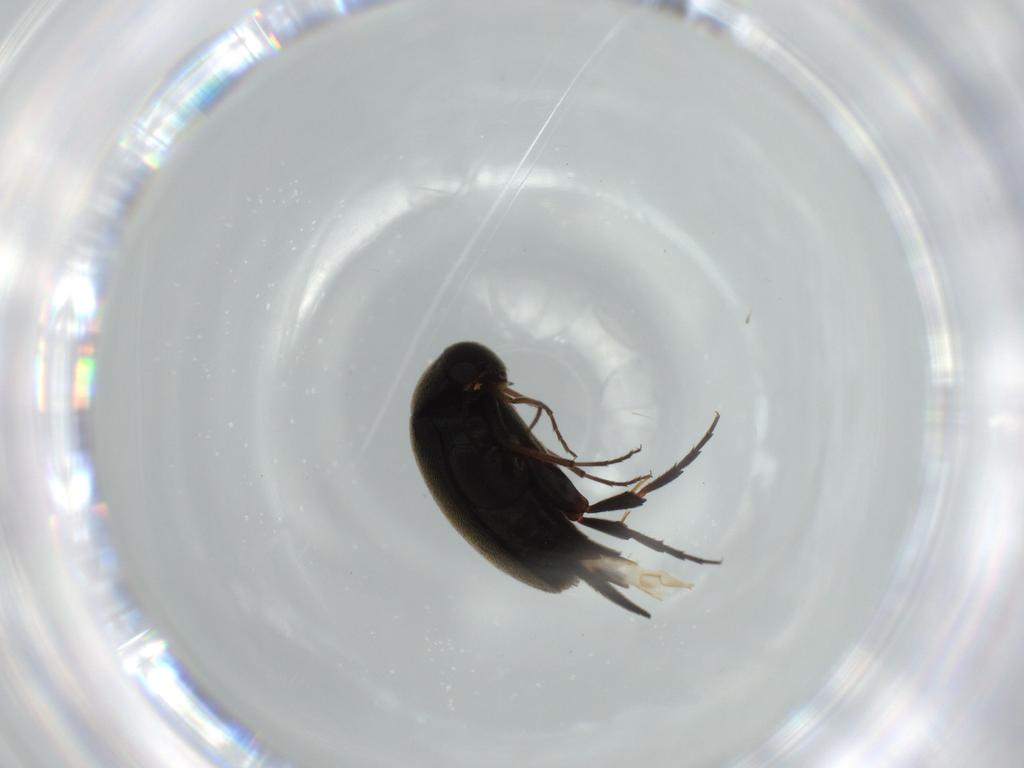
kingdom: Animalia
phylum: Arthropoda
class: Insecta
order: Coleoptera
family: Mordellidae
